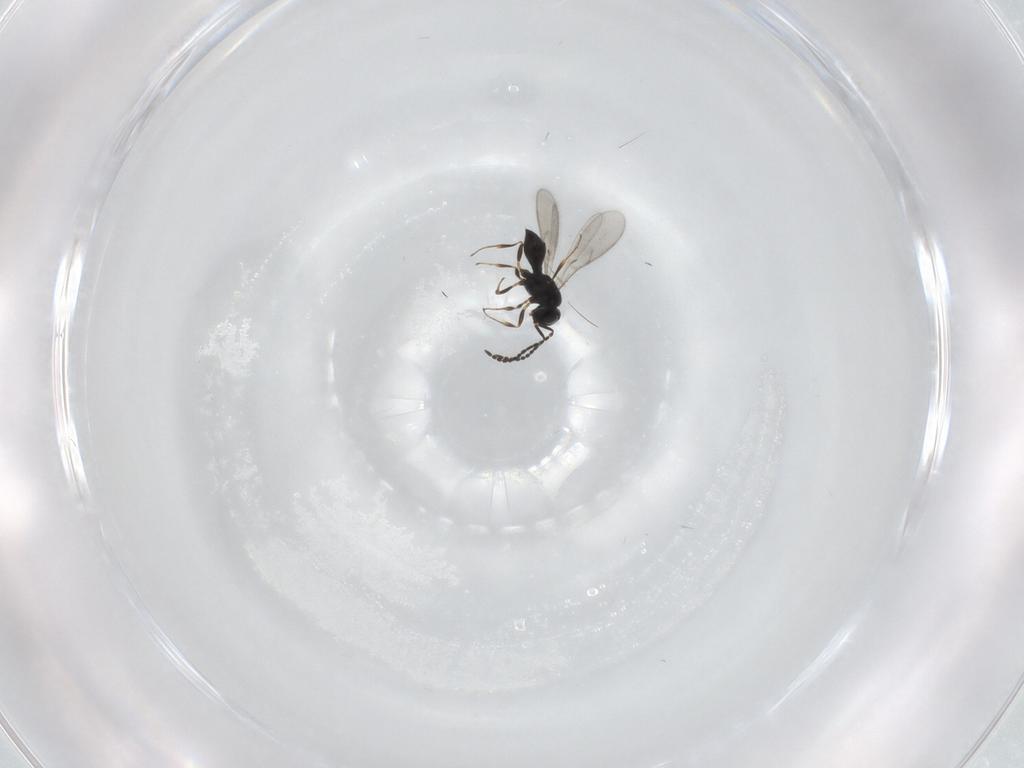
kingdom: Animalia
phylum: Arthropoda
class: Insecta
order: Hymenoptera
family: Scelionidae
